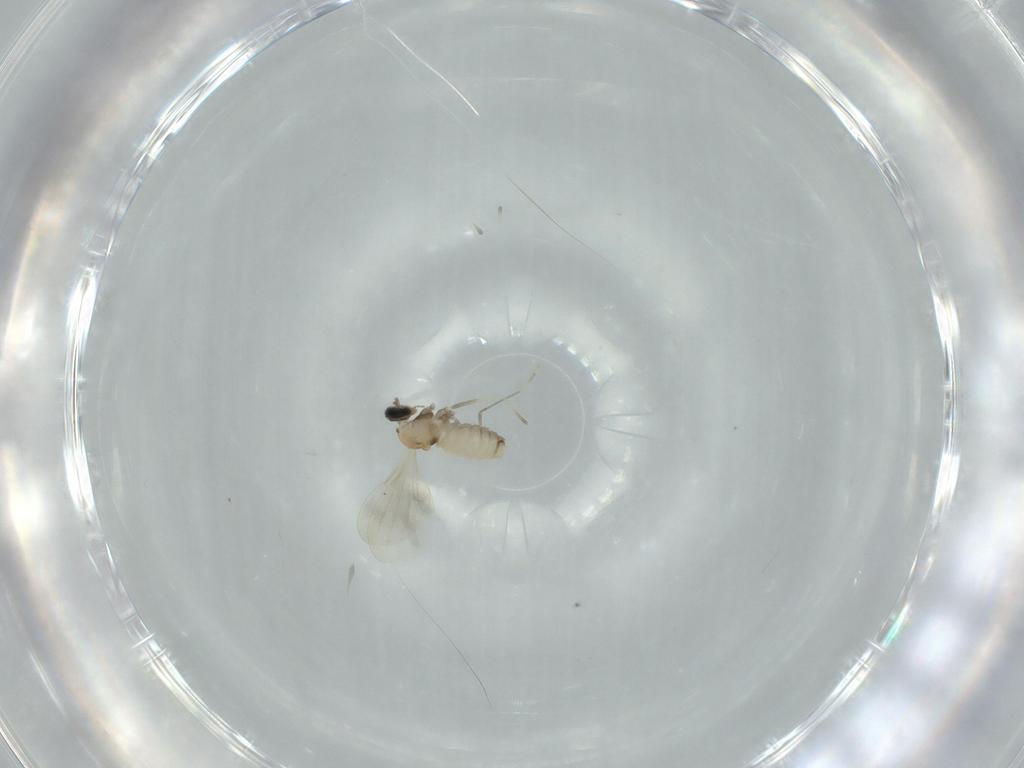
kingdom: Animalia
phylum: Arthropoda
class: Insecta
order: Diptera
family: Cecidomyiidae
